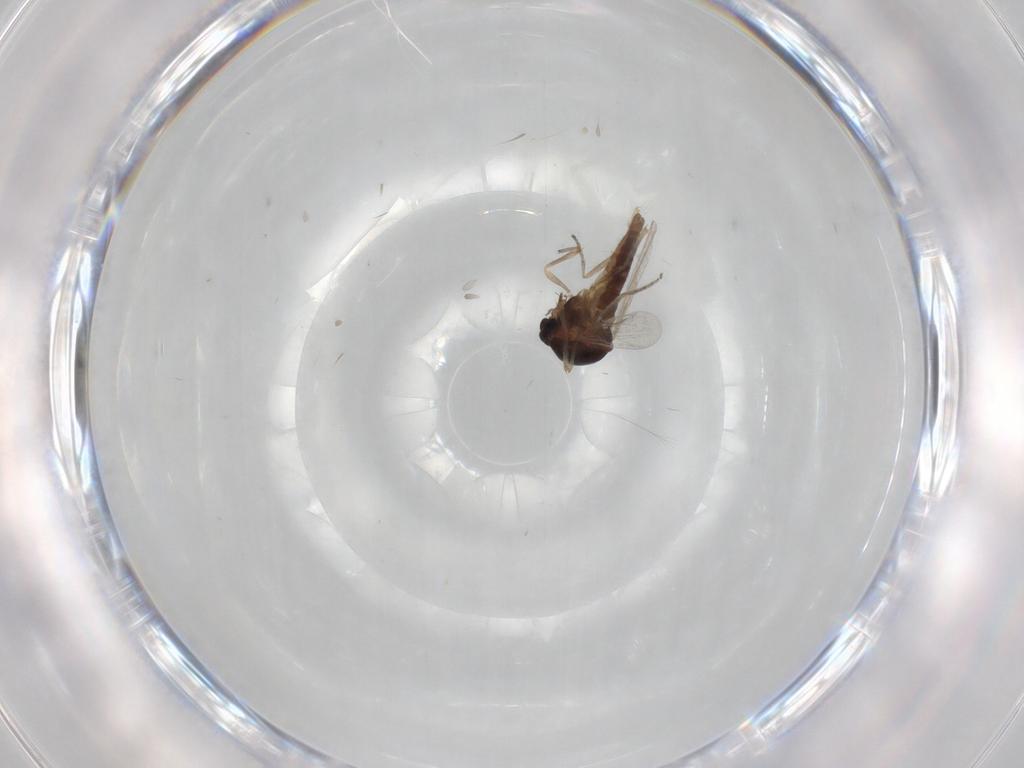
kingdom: Animalia
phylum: Arthropoda
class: Insecta
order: Diptera
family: Ceratopogonidae
